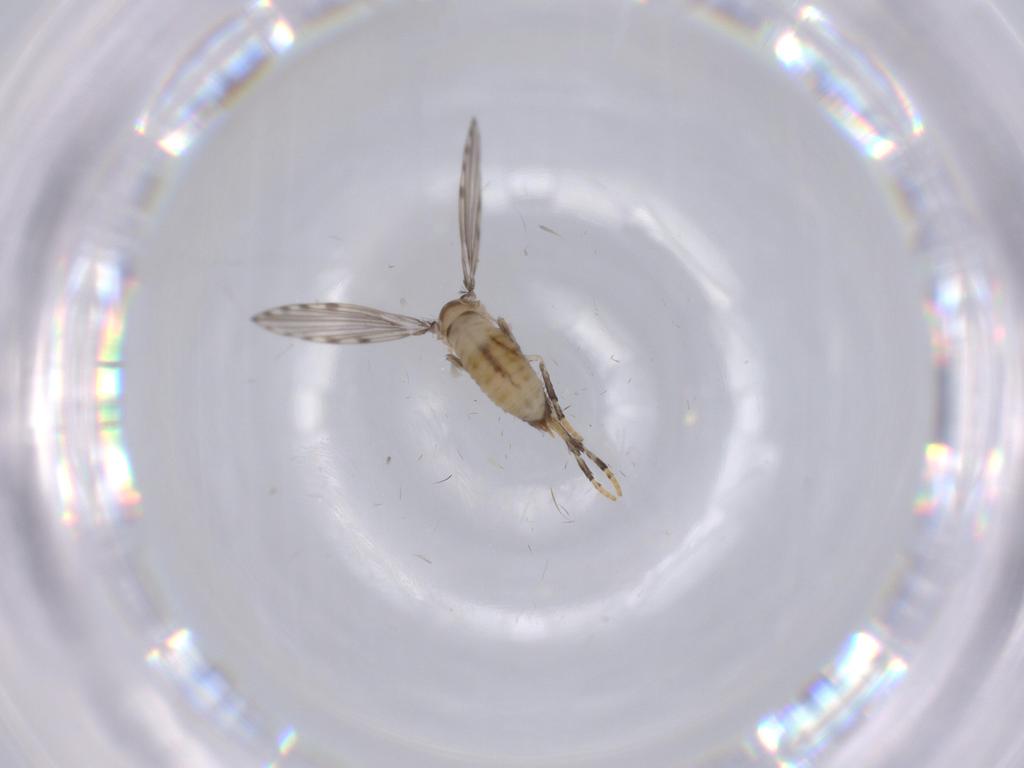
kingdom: Animalia
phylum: Arthropoda
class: Insecta
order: Diptera
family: Psychodidae
